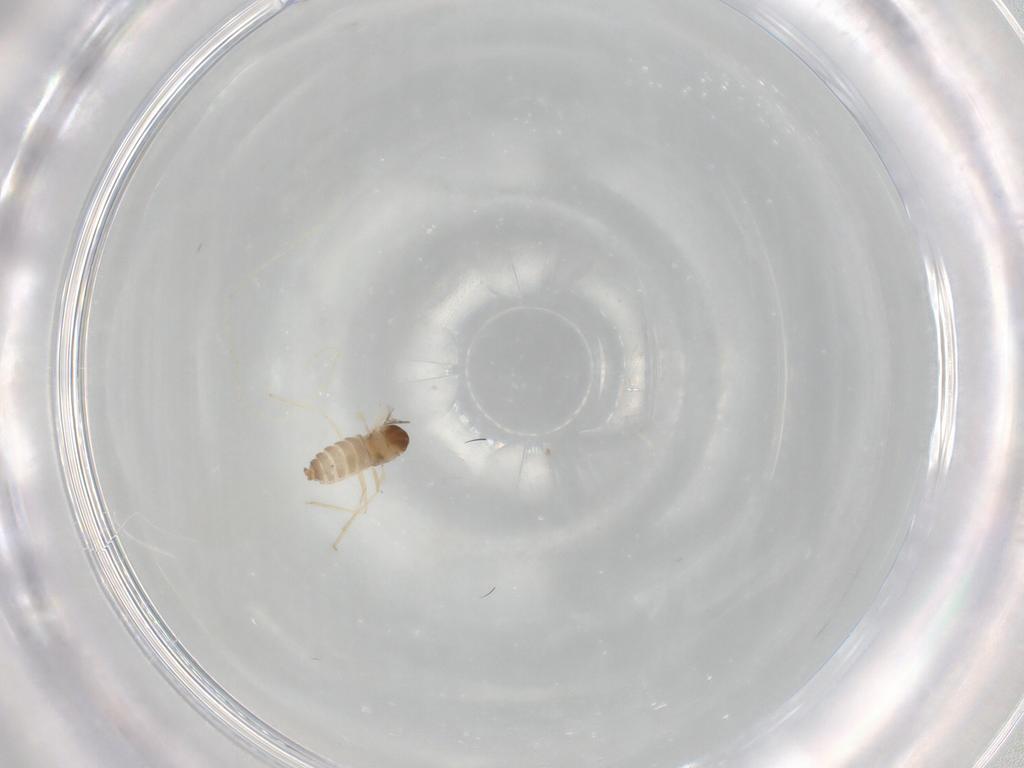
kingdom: Animalia
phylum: Arthropoda
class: Insecta
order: Diptera
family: Cecidomyiidae
